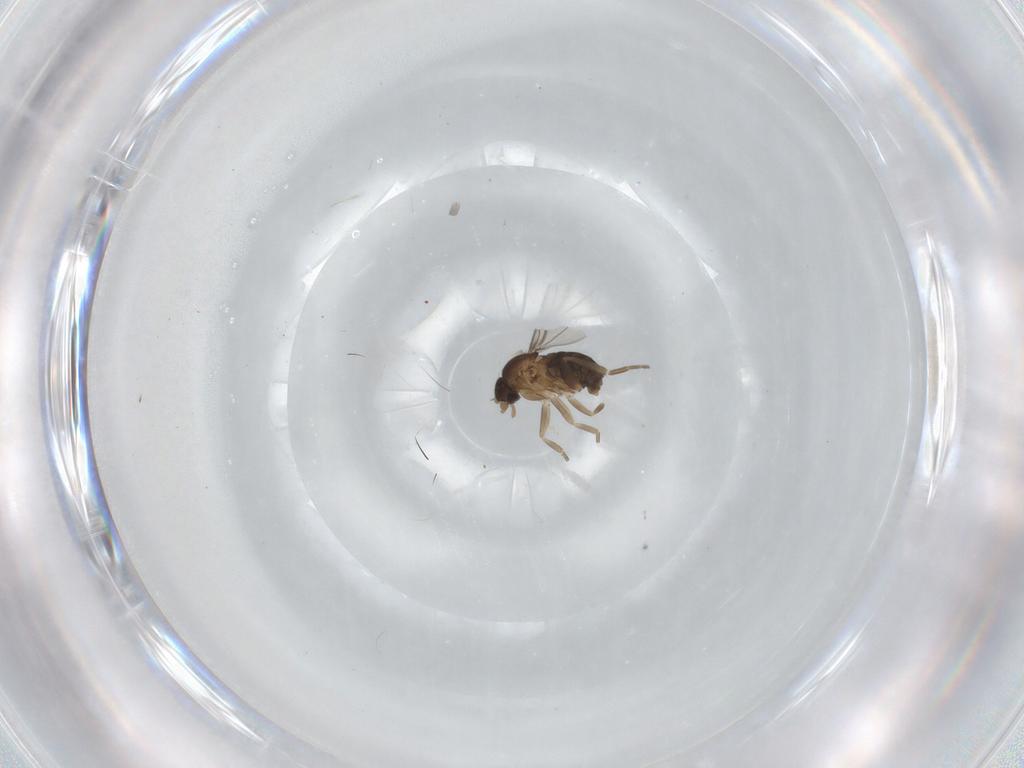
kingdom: Animalia
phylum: Arthropoda
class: Insecta
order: Diptera
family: Phoridae
